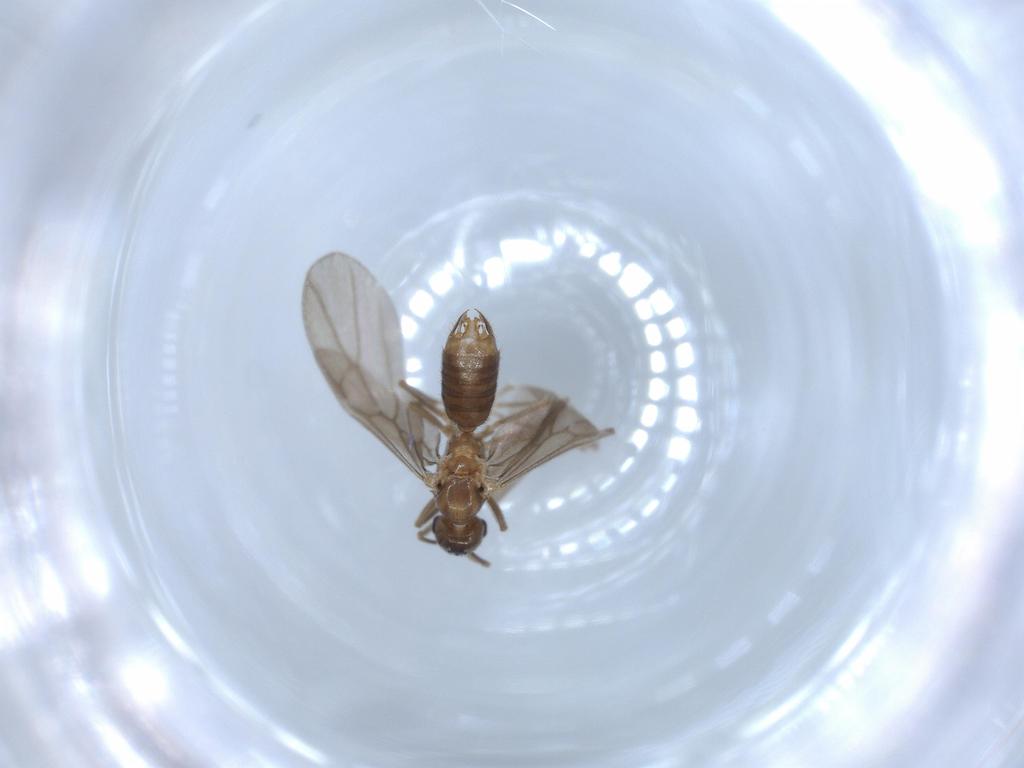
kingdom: Animalia
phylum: Arthropoda
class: Insecta
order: Hymenoptera
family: Formicidae
